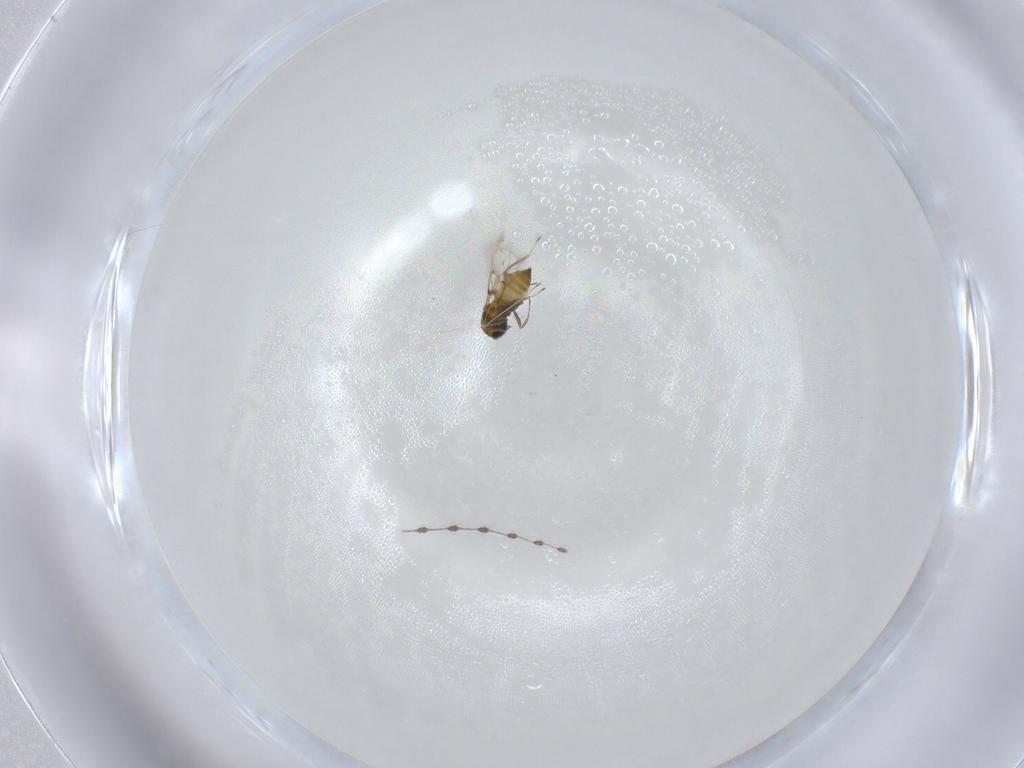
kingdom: Animalia
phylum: Arthropoda
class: Insecta
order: Hymenoptera
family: Trichogrammatidae
